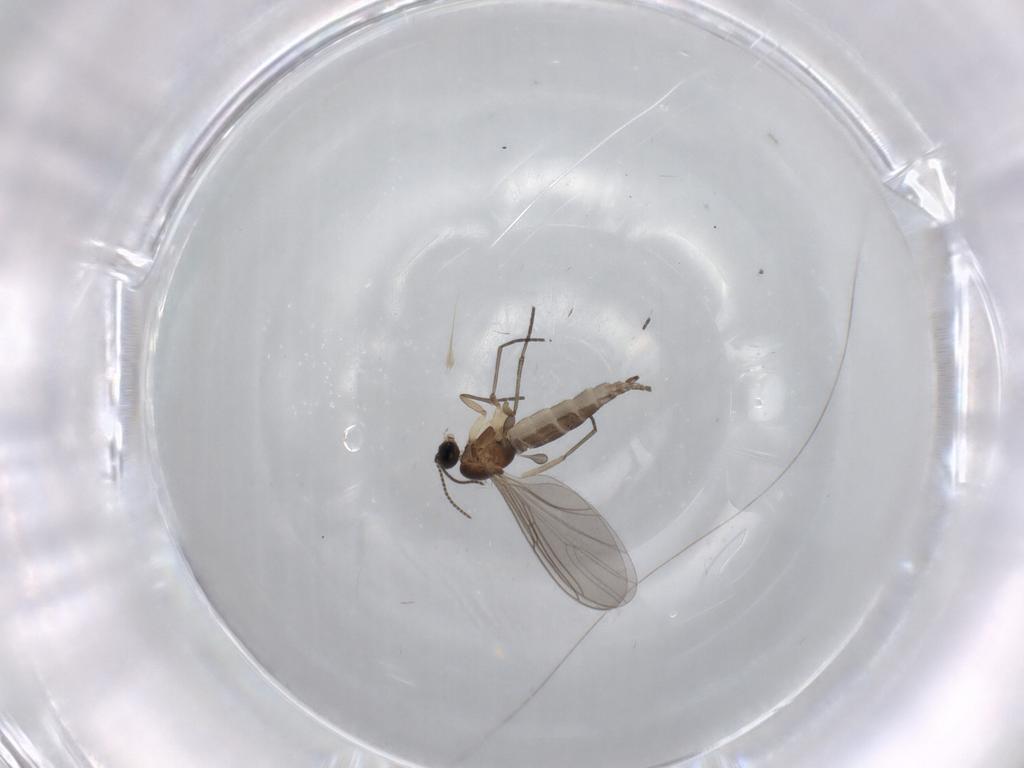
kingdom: Animalia
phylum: Arthropoda
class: Insecta
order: Diptera
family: Sciaridae
